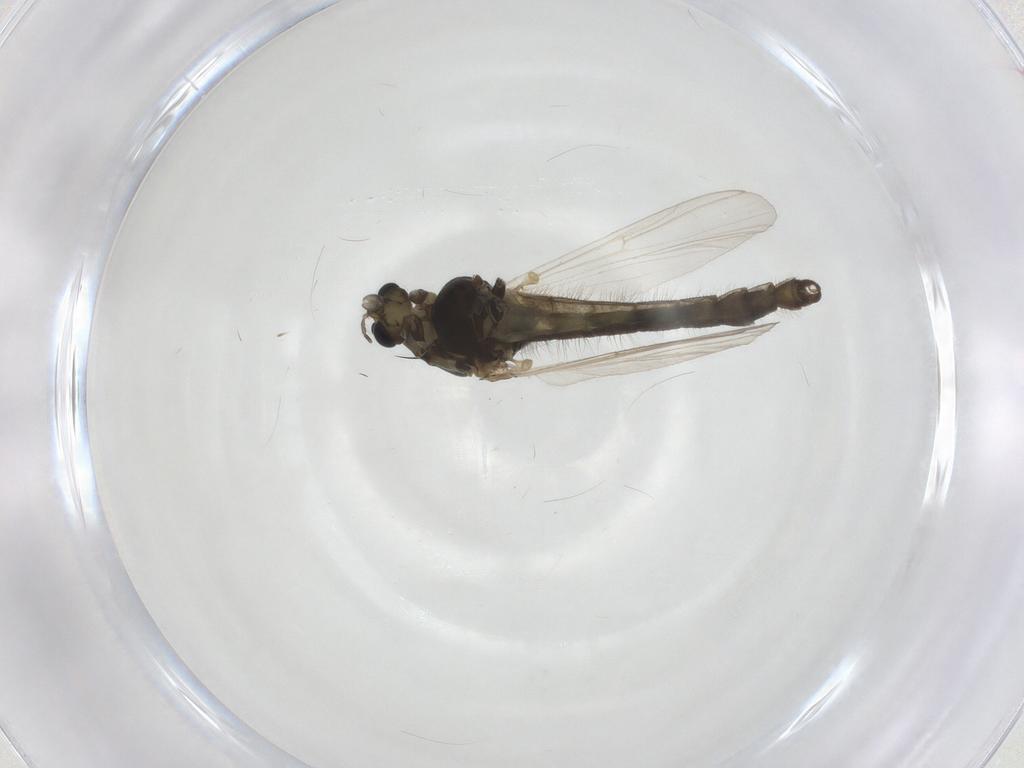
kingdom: Animalia
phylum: Arthropoda
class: Insecta
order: Diptera
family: Chironomidae
